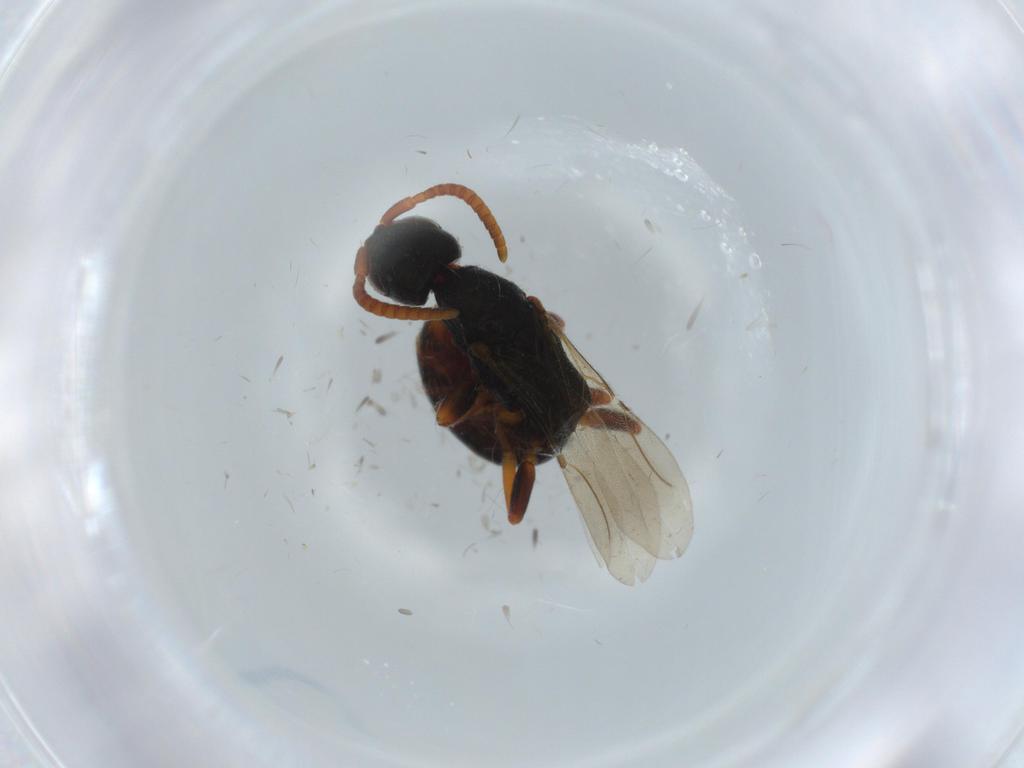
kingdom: Animalia
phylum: Arthropoda
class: Insecta
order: Hymenoptera
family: Bethylidae
